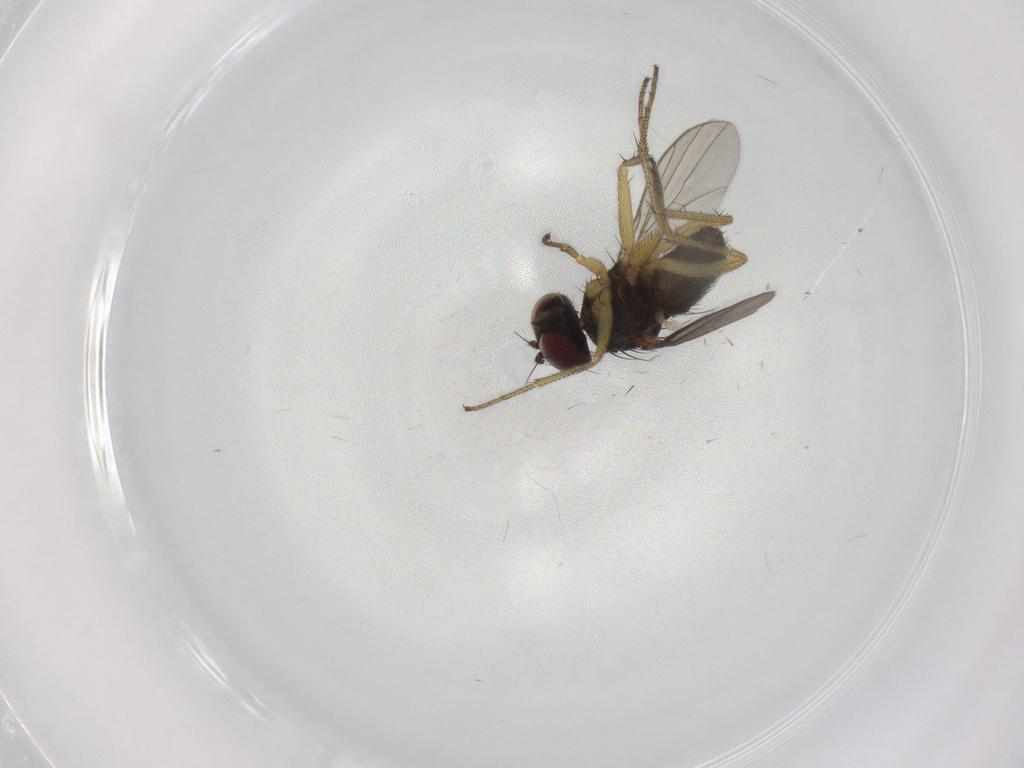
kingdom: Animalia
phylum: Arthropoda
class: Insecta
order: Diptera
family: Dolichopodidae
